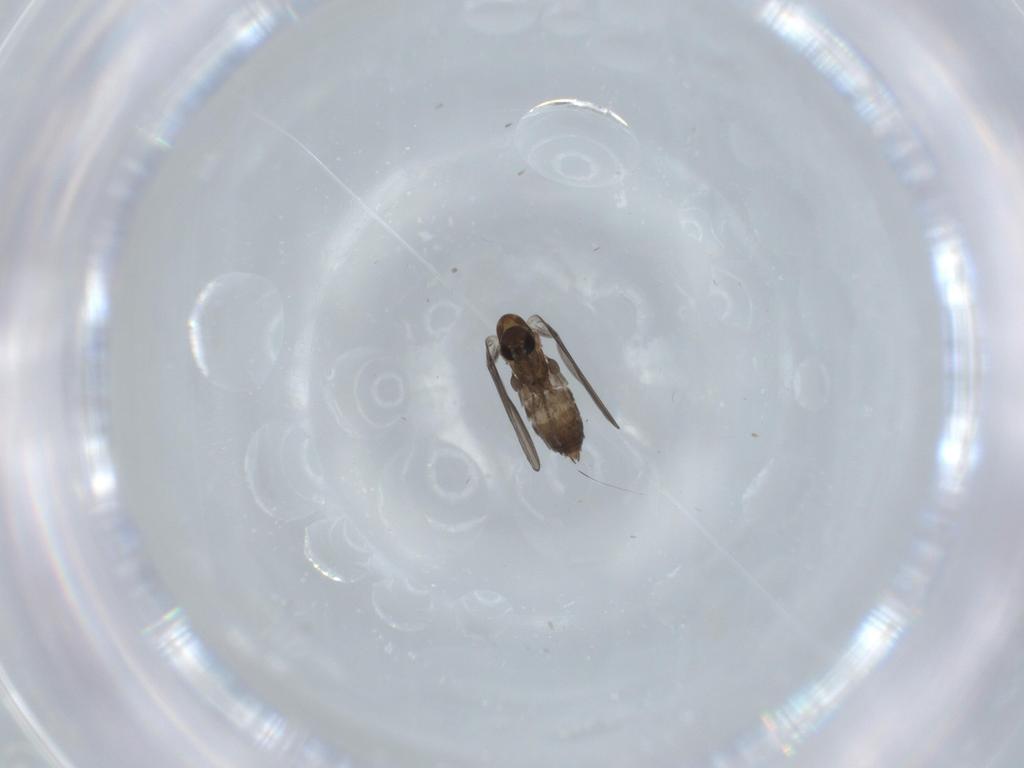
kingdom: Animalia
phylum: Arthropoda
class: Insecta
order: Diptera
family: Psychodidae
